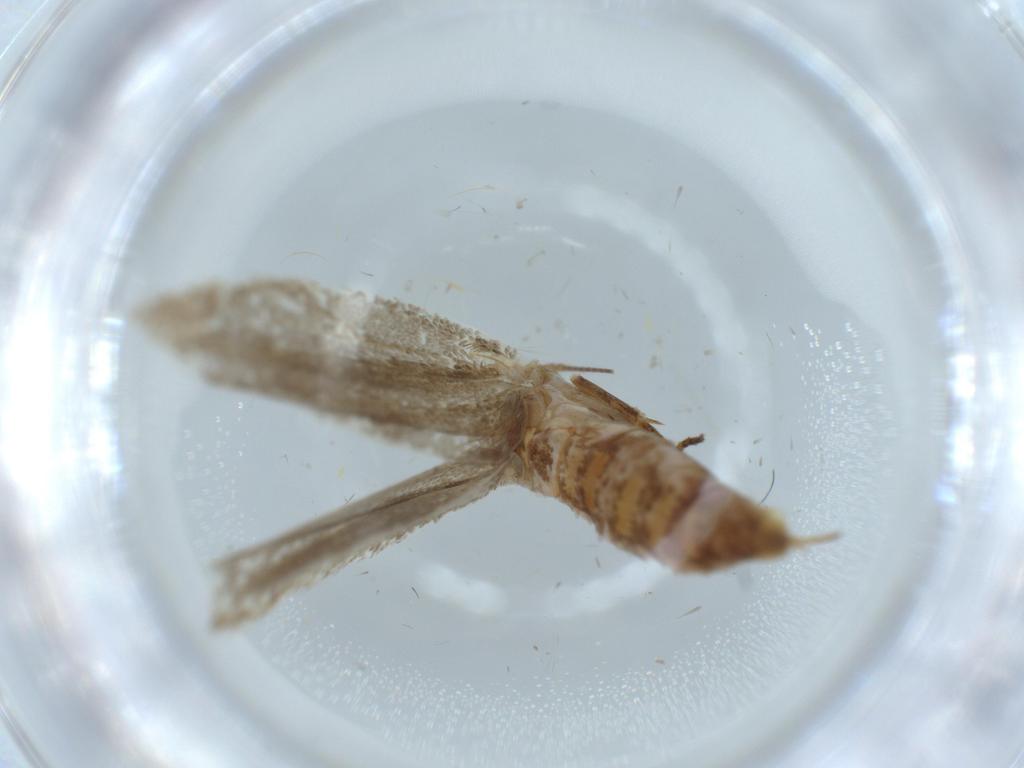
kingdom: Animalia
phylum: Arthropoda
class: Insecta
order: Lepidoptera
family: Oecophoridae
